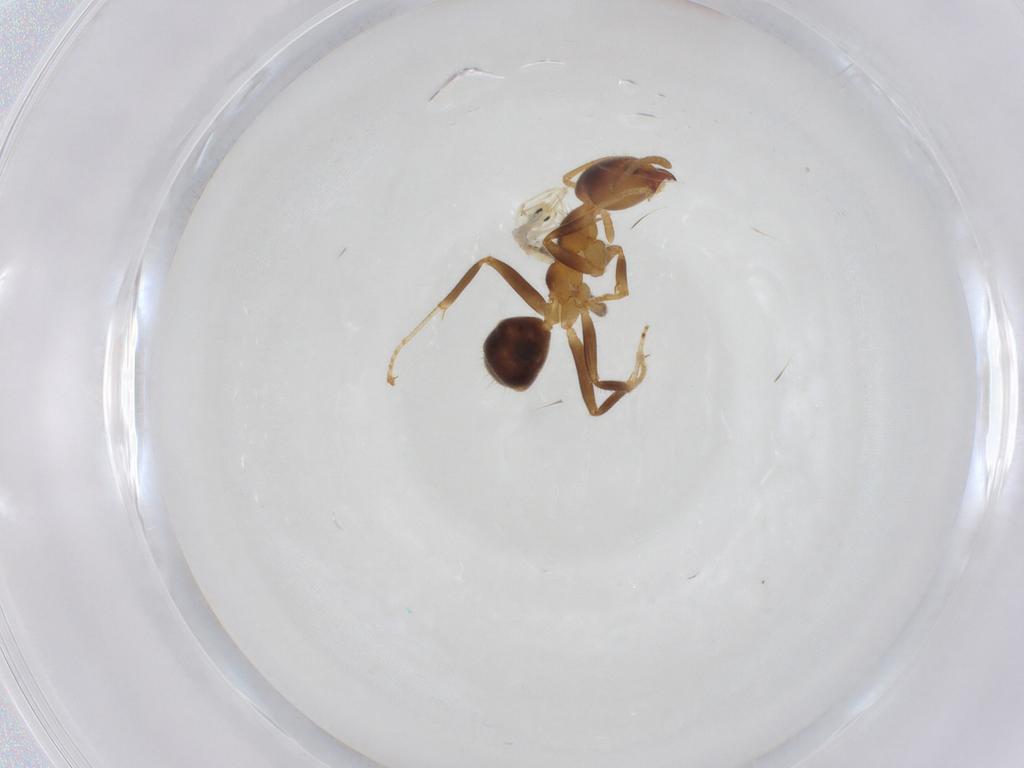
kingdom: Animalia
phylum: Arthropoda
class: Insecta
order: Hymenoptera
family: Formicidae
